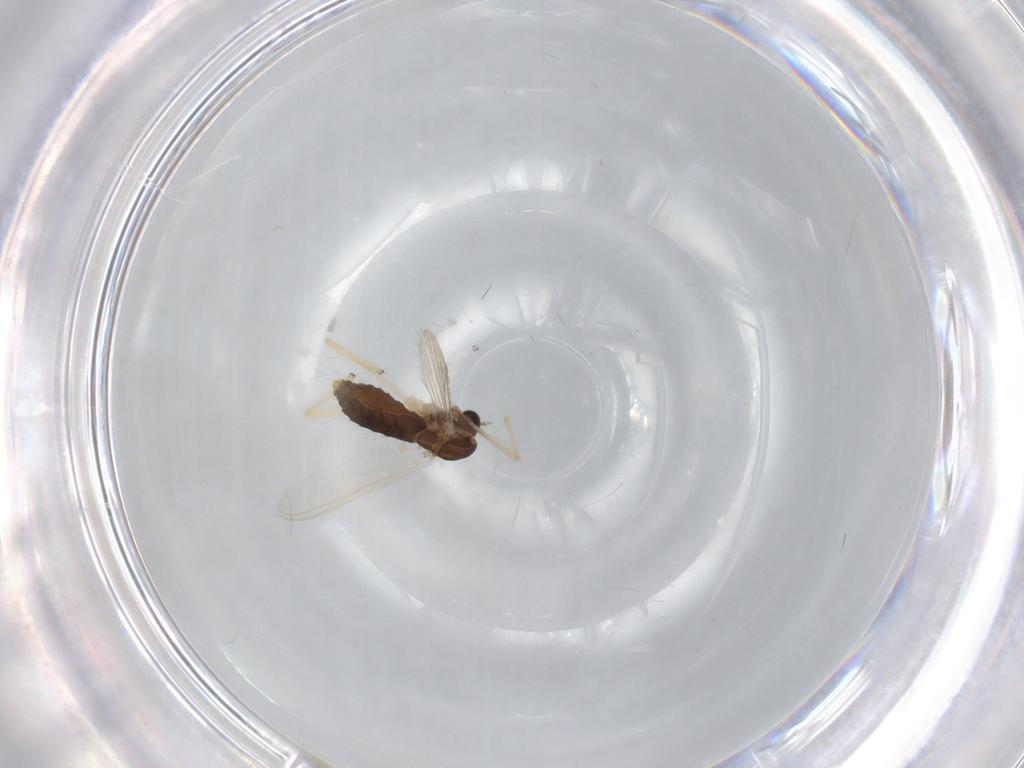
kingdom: Animalia
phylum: Arthropoda
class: Insecta
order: Diptera
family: Chironomidae
